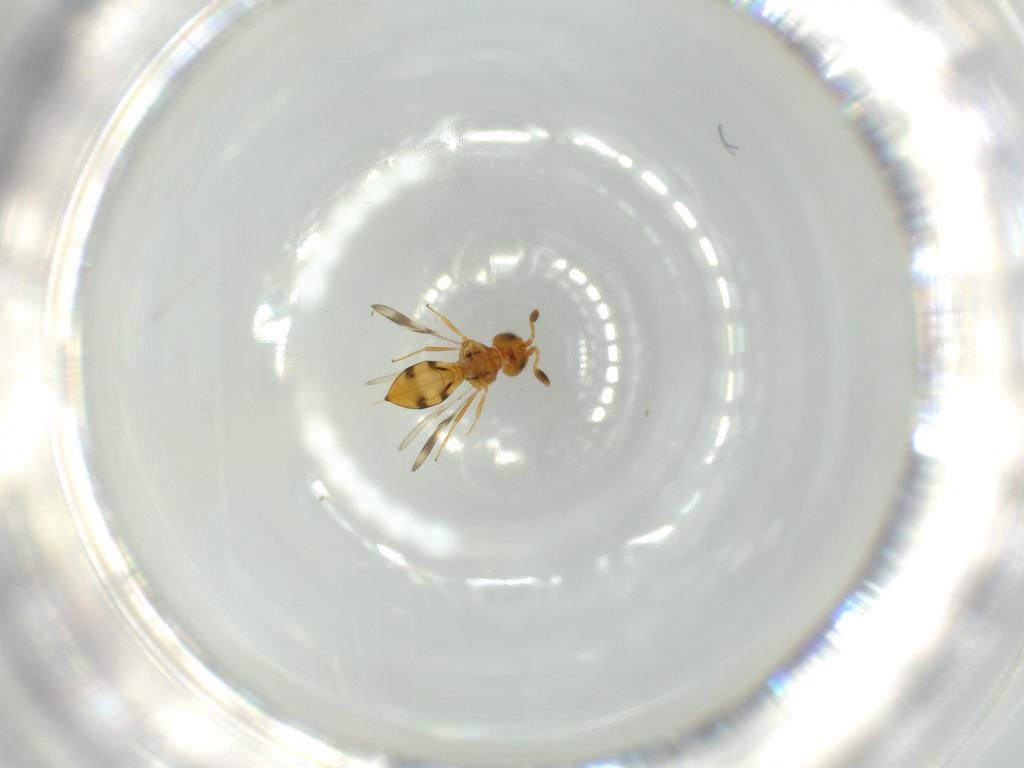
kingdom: Animalia
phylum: Arthropoda
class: Insecta
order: Hymenoptera
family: Scelionidae
